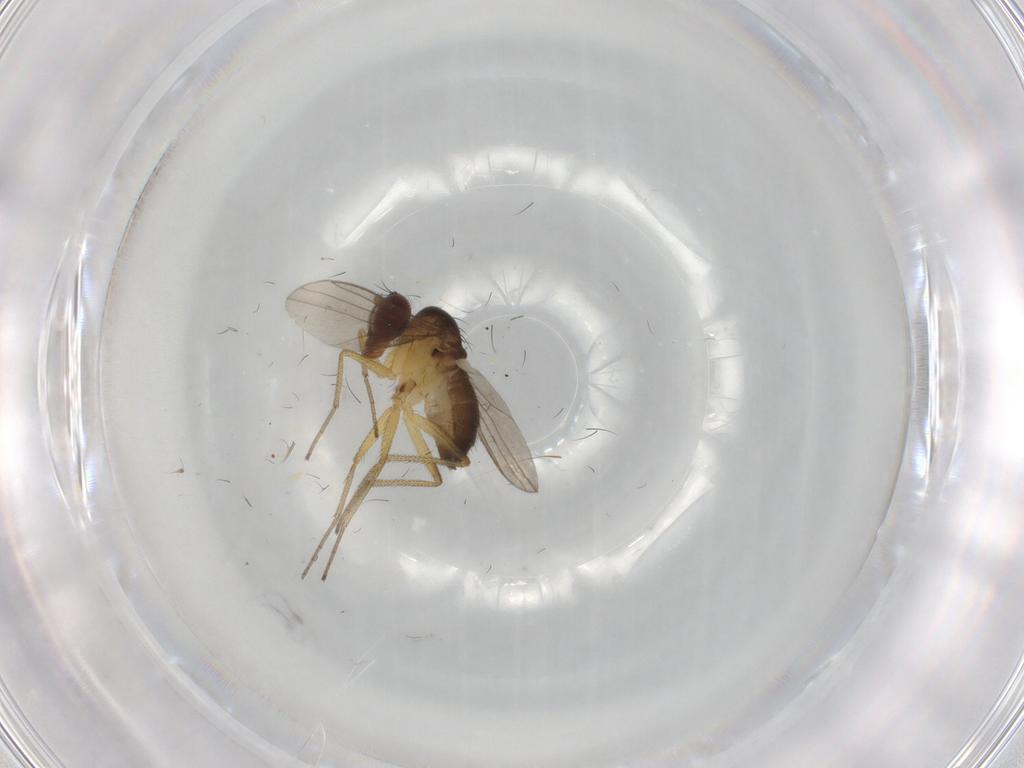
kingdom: Animalia
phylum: Arthropoda
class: Insecta
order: Diptera
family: Dolichopodidae
